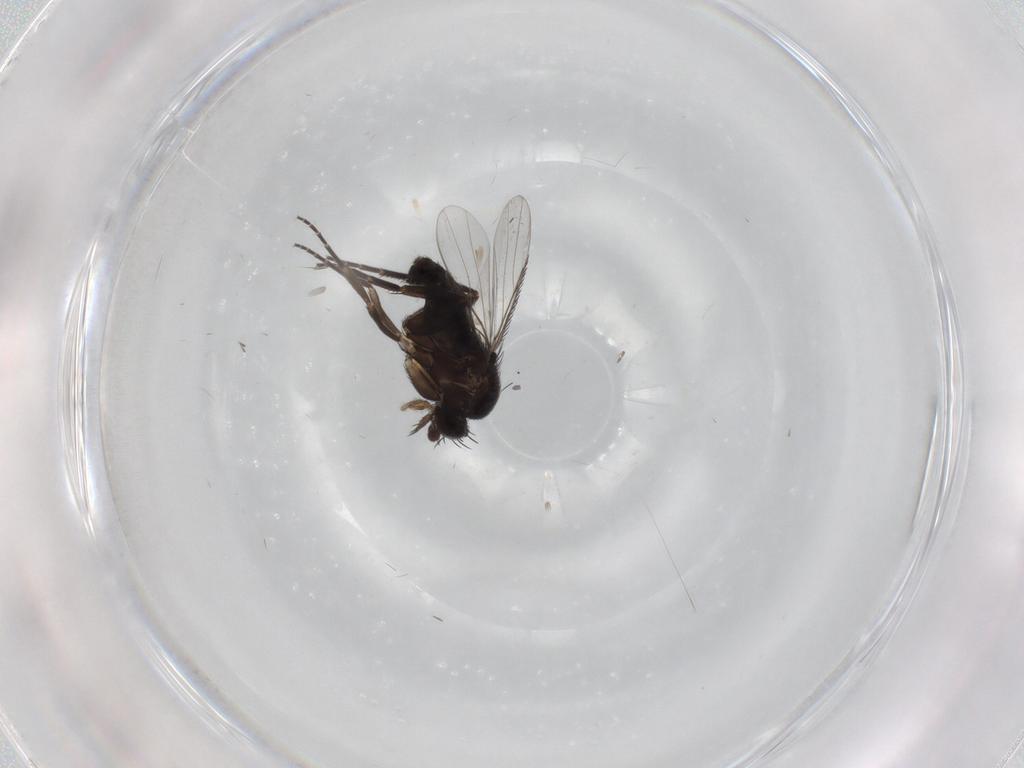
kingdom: Animalia
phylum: Arthropoda
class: Insecta
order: Diptera
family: Phoridae
